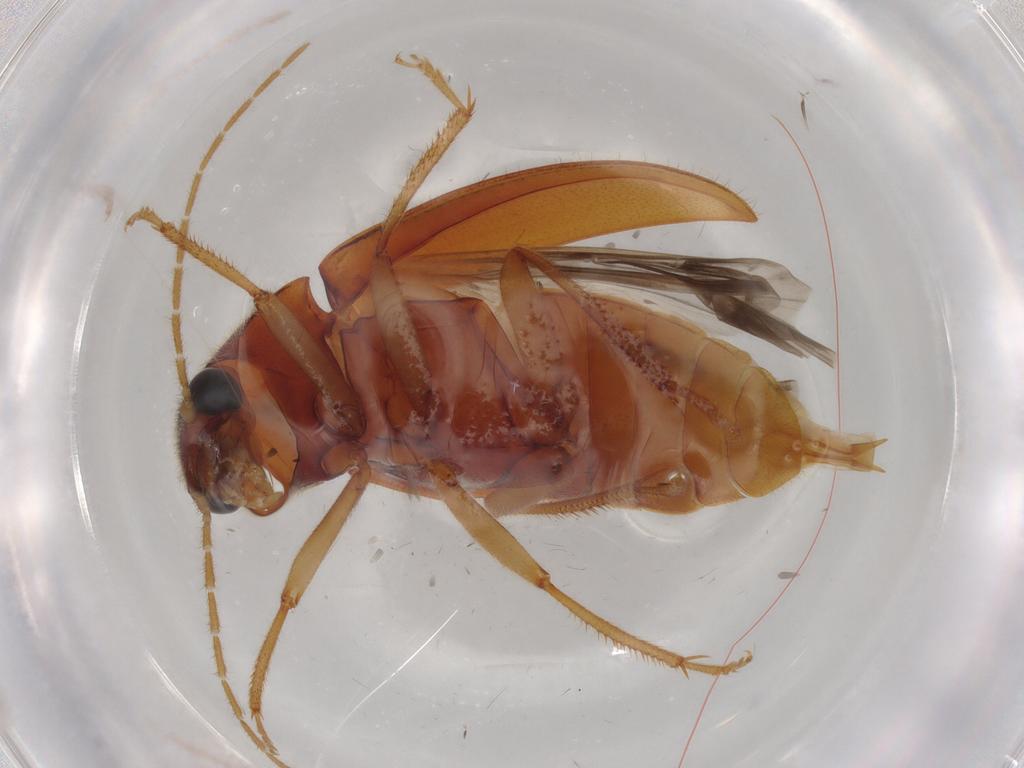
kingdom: Animalia
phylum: Arthropoda
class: Insecta
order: Coleoptera
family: Ptilodactylidae
